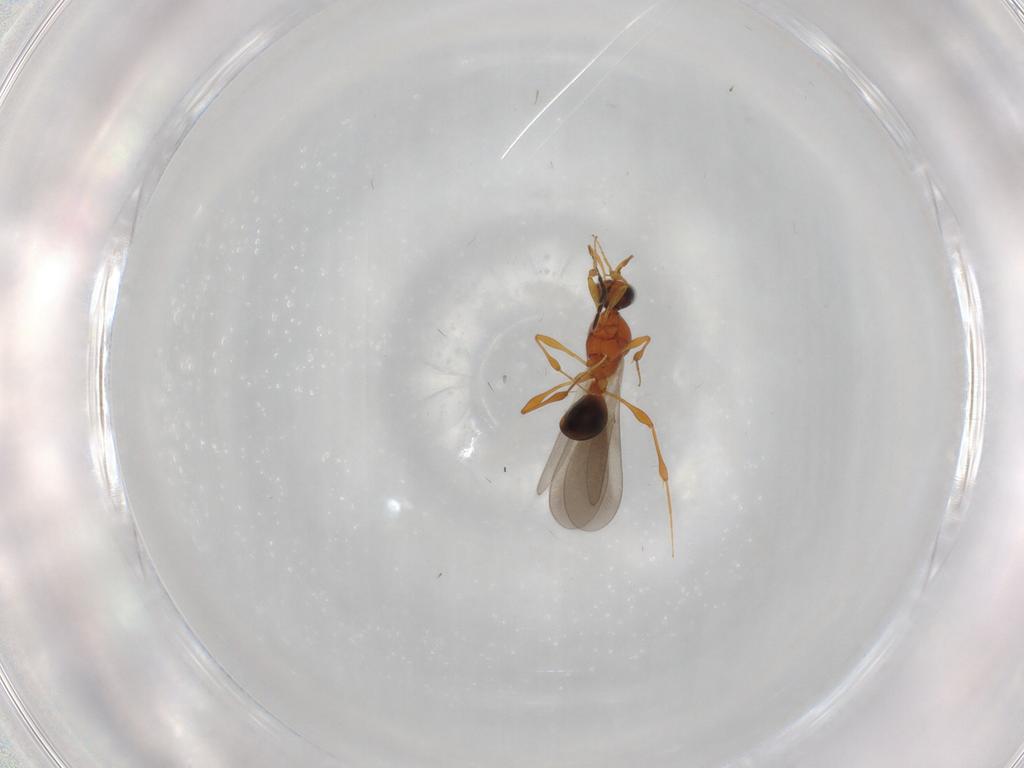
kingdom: Animalia
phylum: Arthropoda
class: Insecta
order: Hymenoptera
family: Platygastridae
